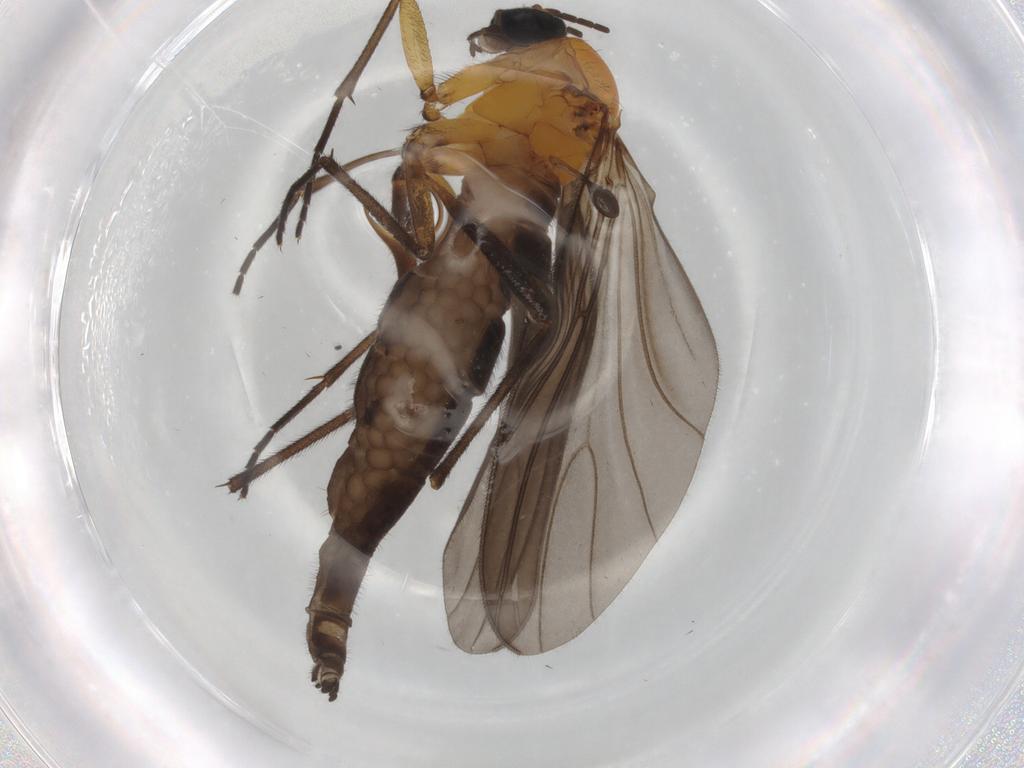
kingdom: Animalia
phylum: Arthropoda
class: Insecta
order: Diptera
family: Sciaridae
